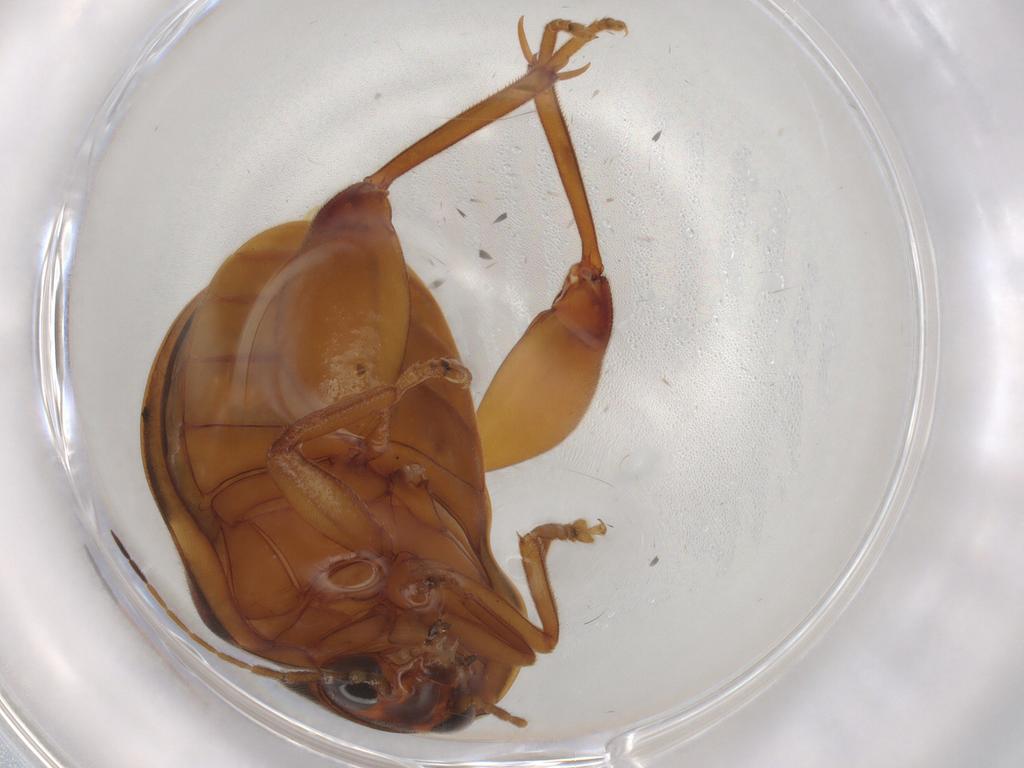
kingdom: Animalia
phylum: Arthropoda
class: Insecta
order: Coleoptera
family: Scirtidae
